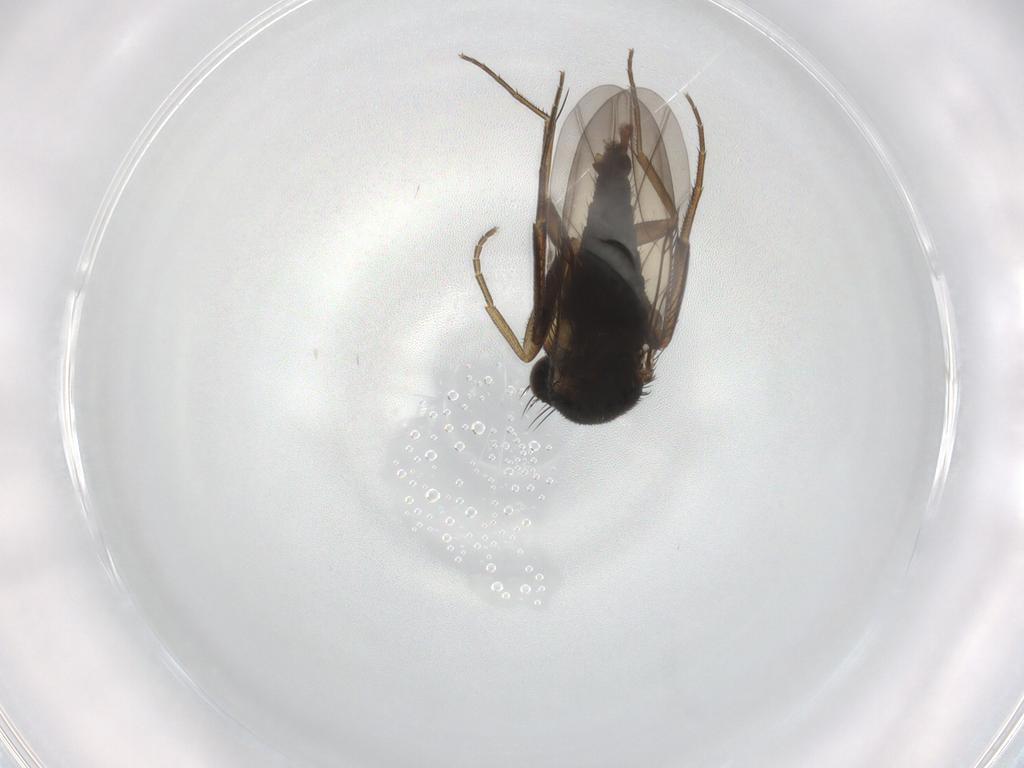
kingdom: Animalia
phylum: Arthropoda
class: Insecta
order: Diptera
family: Phoridae
